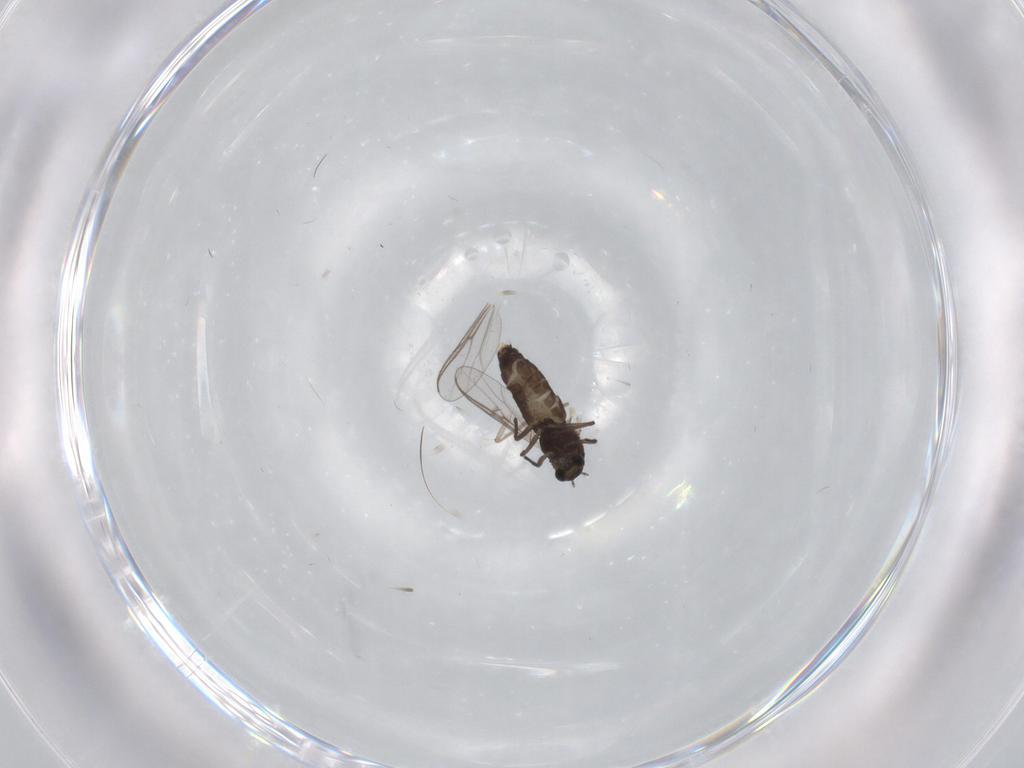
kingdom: Animalia
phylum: Arthropoda
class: Insecta
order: Diptera
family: Chironomidae
